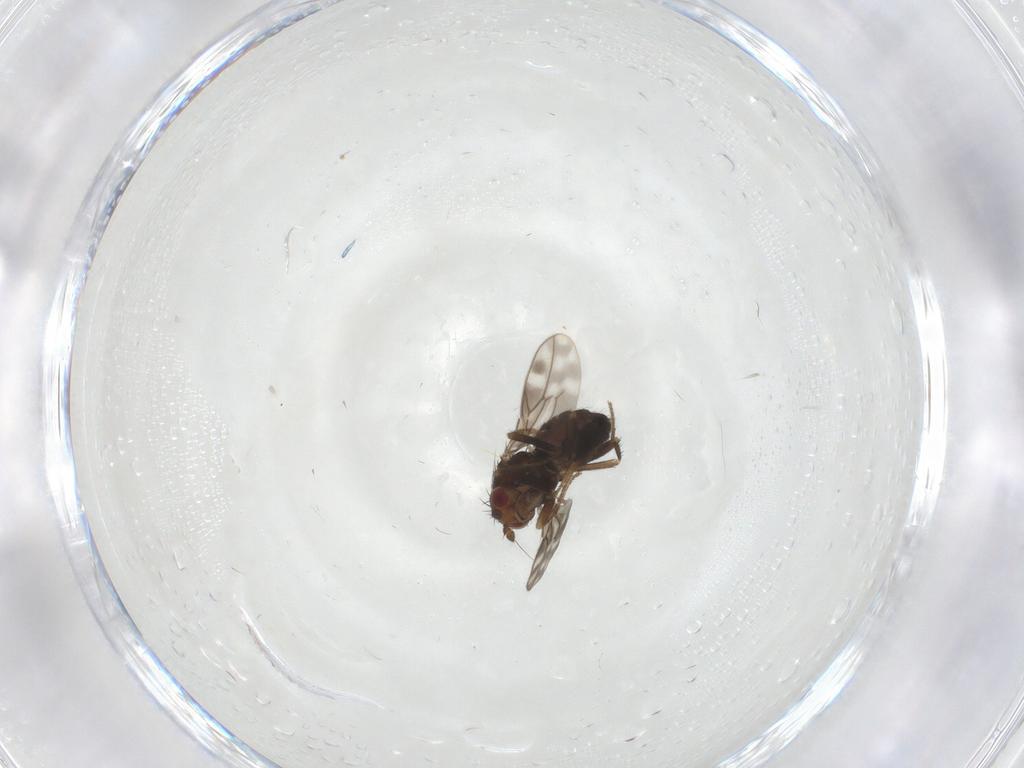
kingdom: Animalia
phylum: Arthropoda
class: Insecta
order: Diptera
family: Sphaeroceridae
